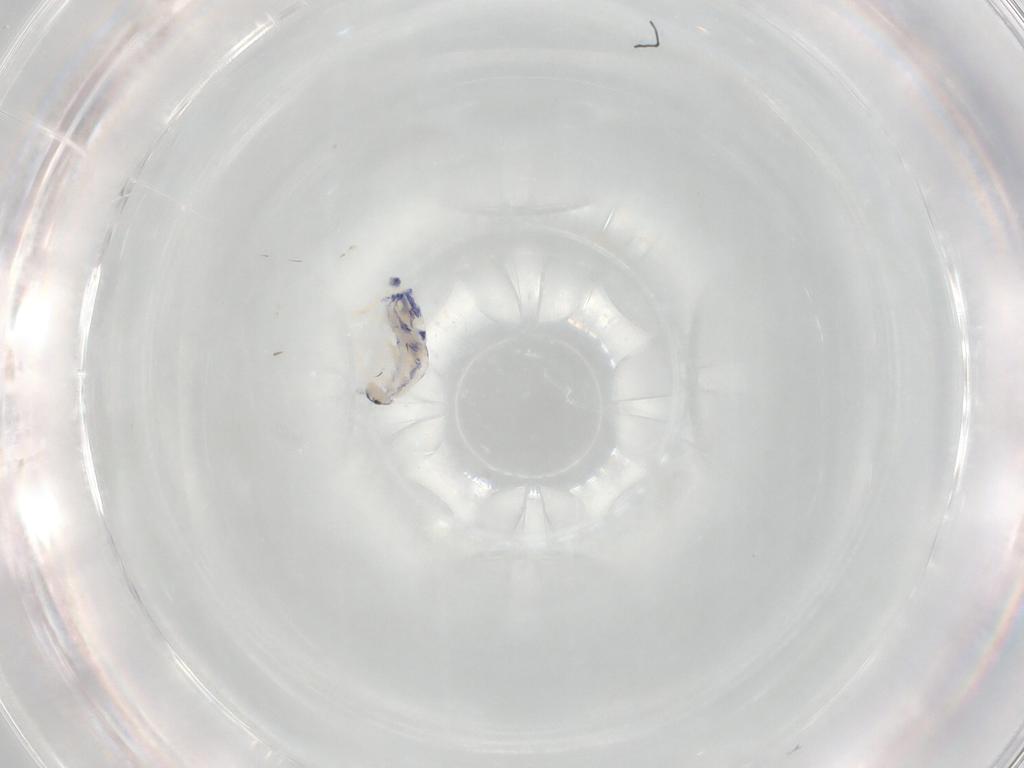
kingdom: Animalia
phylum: Arthropoda
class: Collembola
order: Entomobryomorpha
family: Entomobryidae
